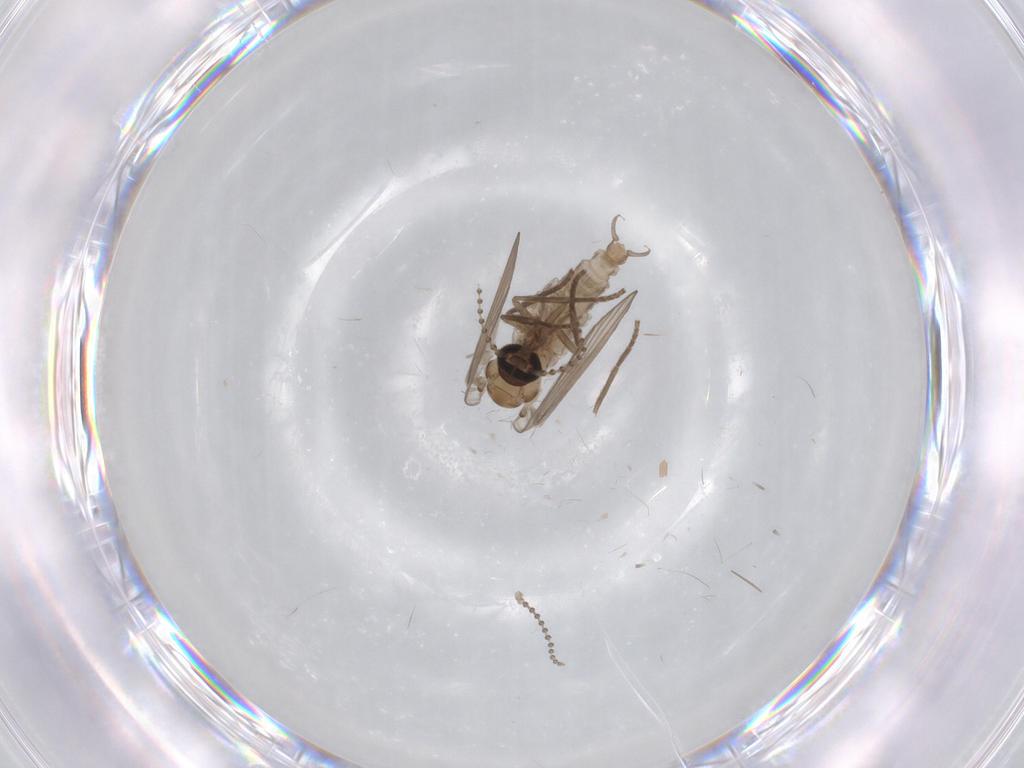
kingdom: Animalia
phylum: Arthropoda
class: Insecta
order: Diptera
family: Psychodidae
